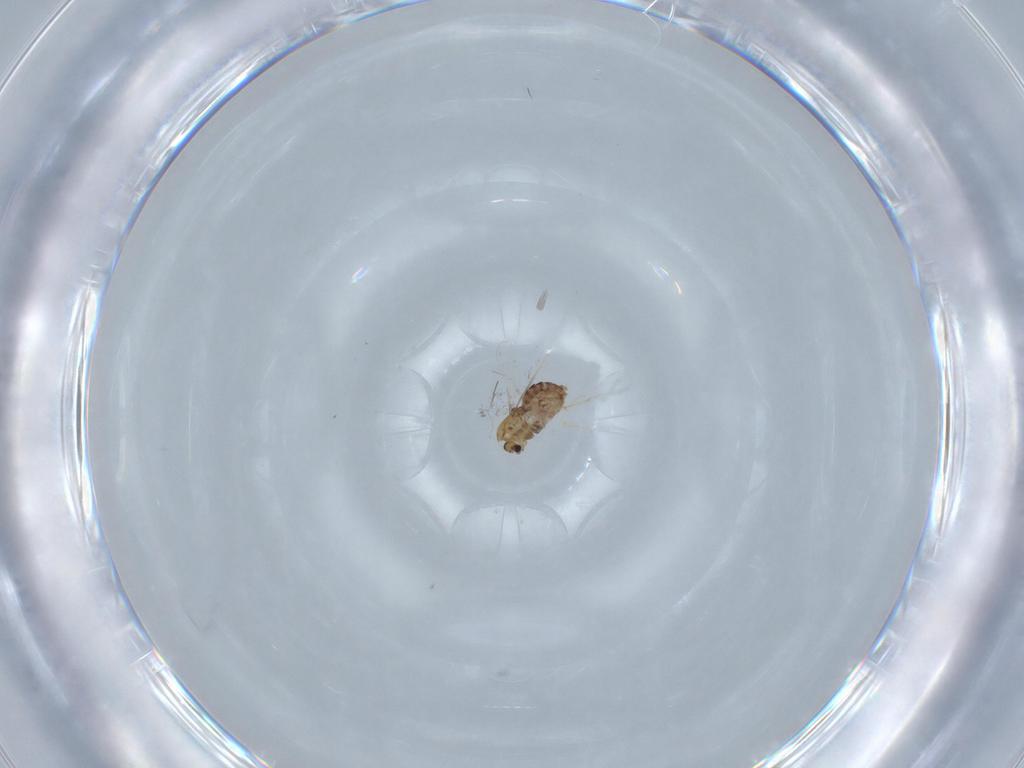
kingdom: Animalia
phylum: Arthropoda
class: Insecta
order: Diptera
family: Chironomidae
